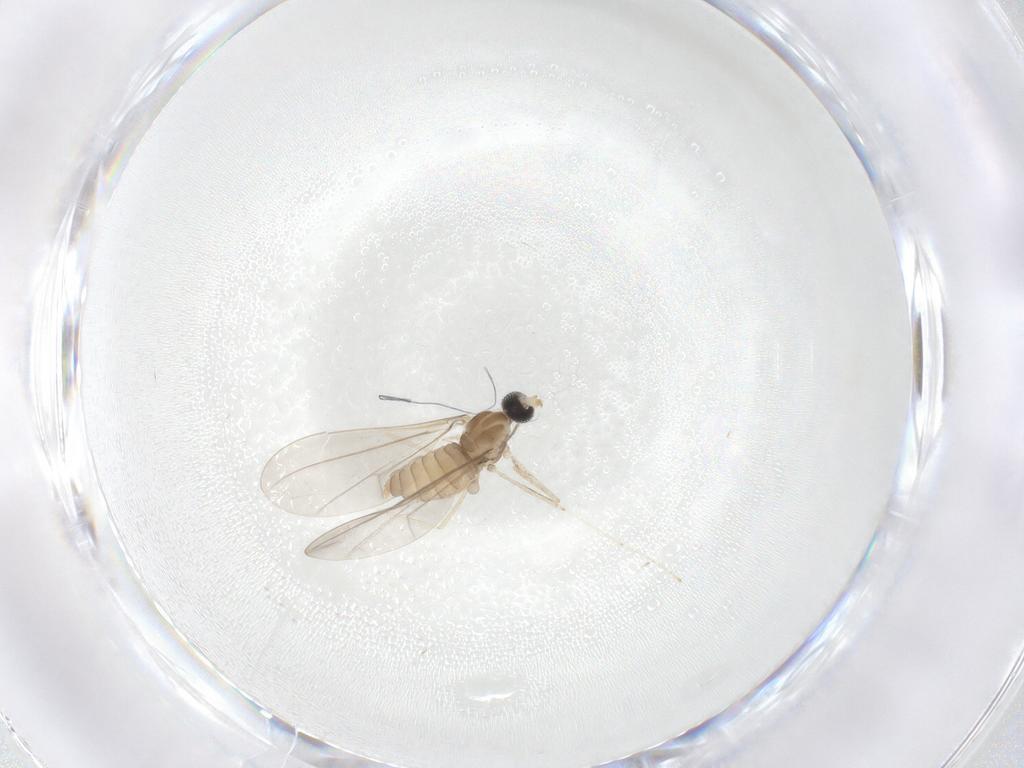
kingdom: Animalia
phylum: Arthropoda
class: Insecta
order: Diptera
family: Cecidomyiidae
